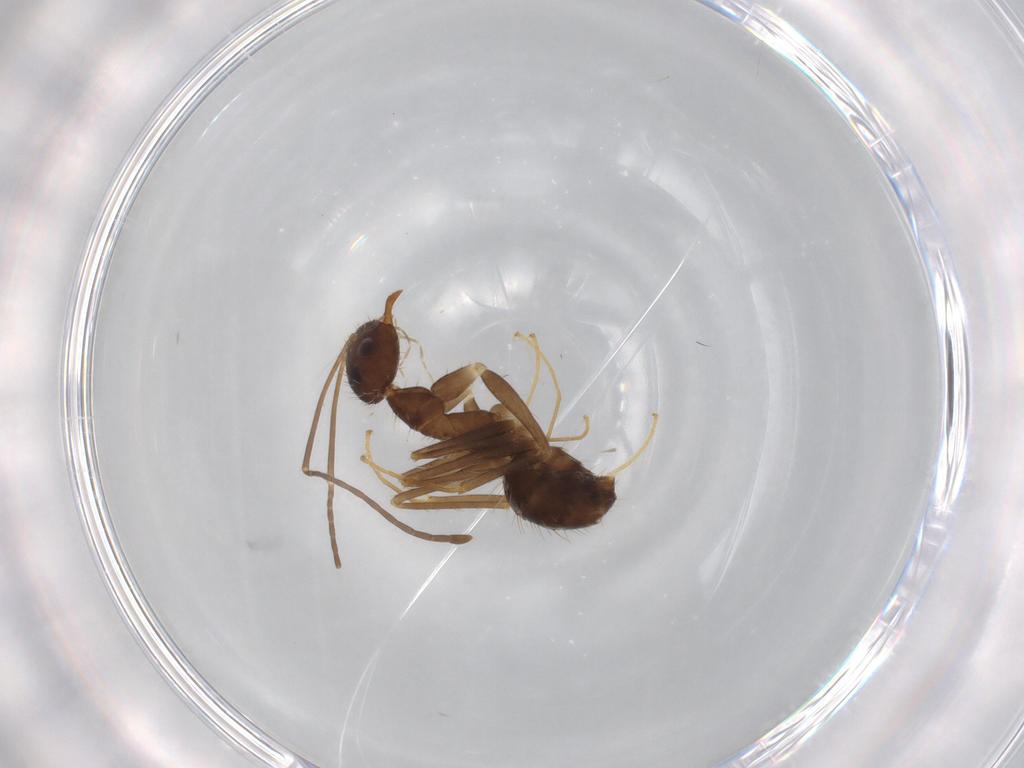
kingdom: Animalia
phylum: Arthropoda
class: Insecta
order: Hymenoptera
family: Formicidae
